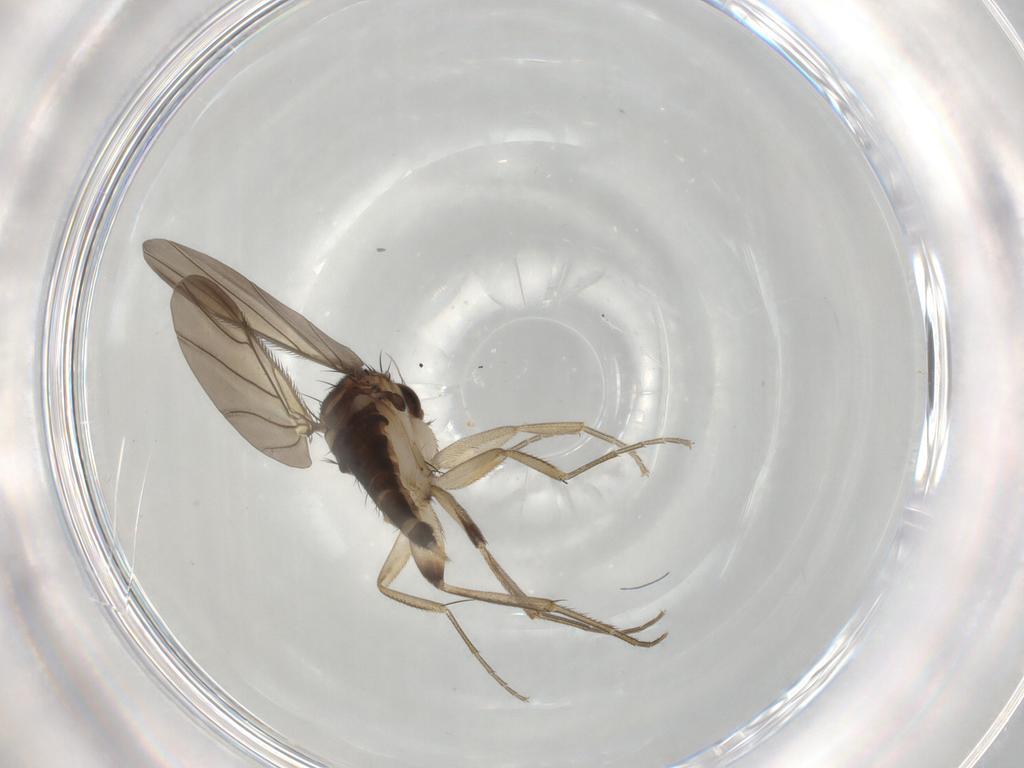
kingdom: Animalia
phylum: Arthropoda
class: Insecta
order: Diptera
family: Phoridae
